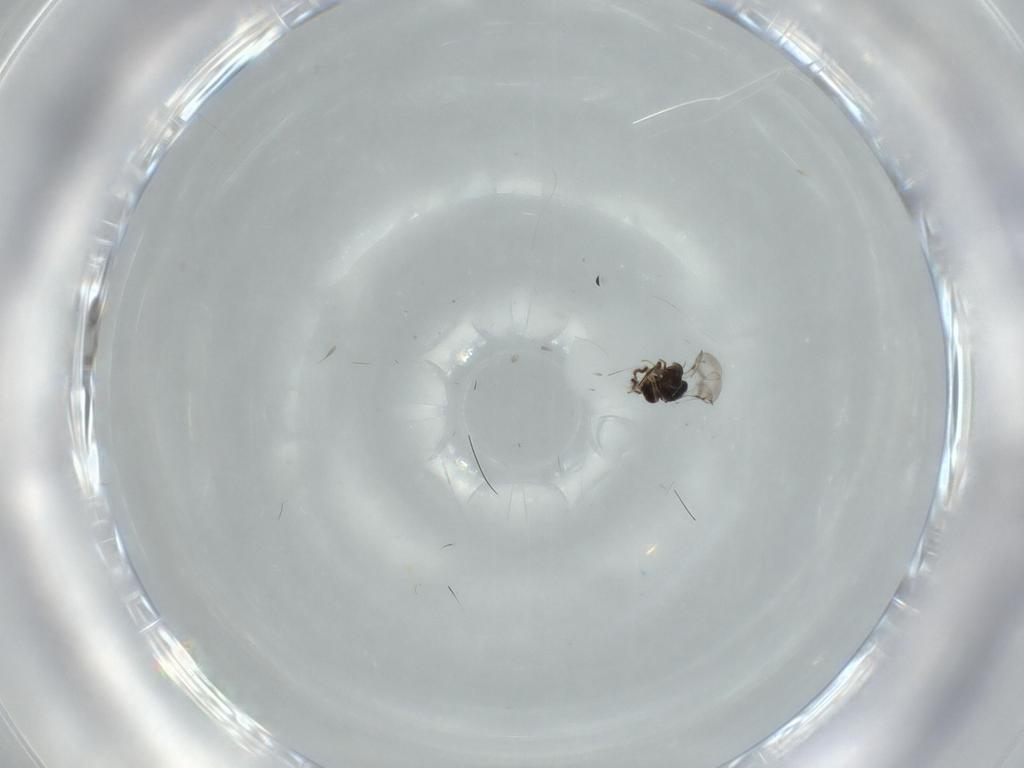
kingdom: Animalia
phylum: Arthropoda
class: Insecta
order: Hymenoptera
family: Ceraphronidae
